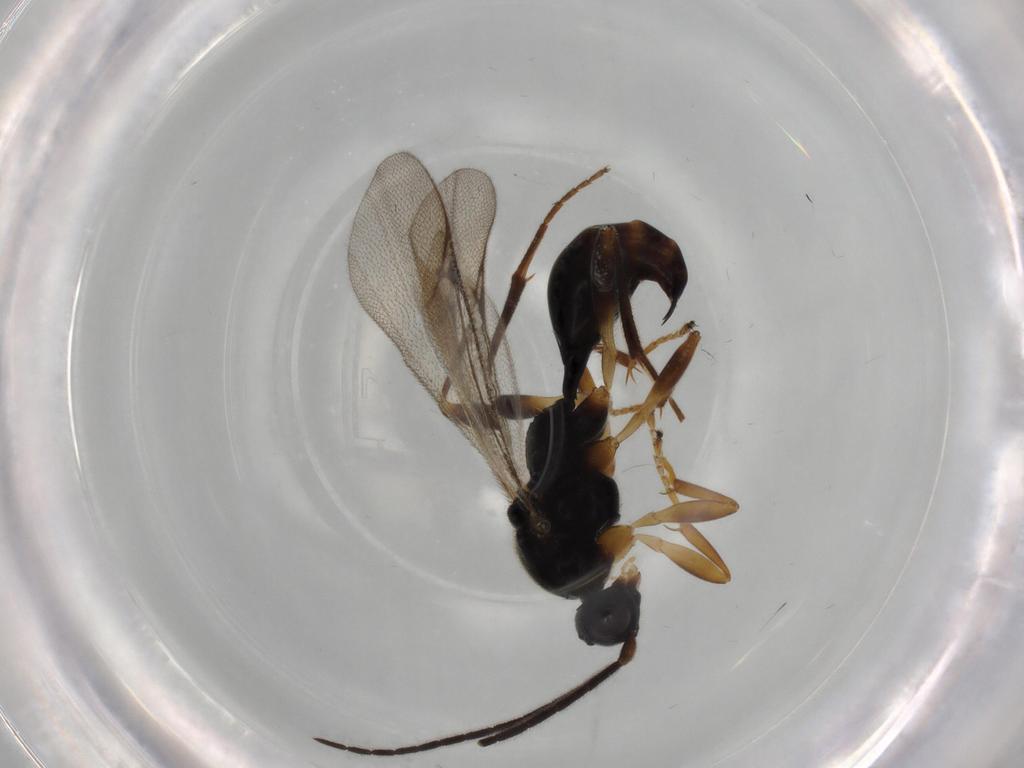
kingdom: Animalia
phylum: Arthropoda
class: Insecta
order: Hymenoptera
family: Proctotrupidae
